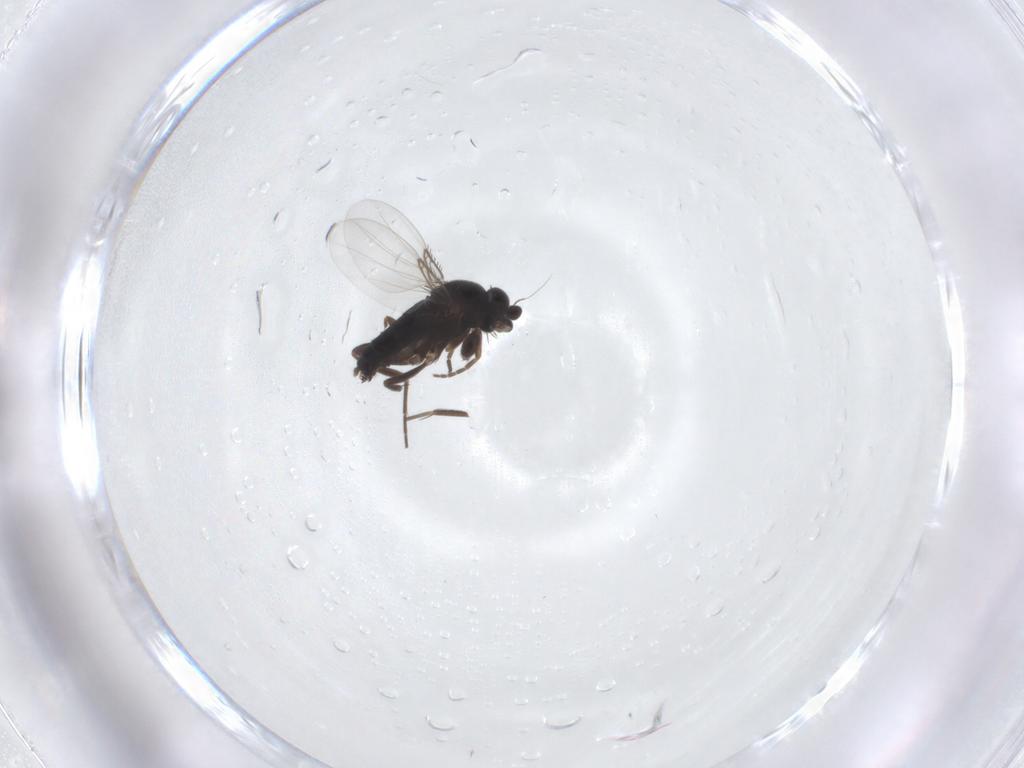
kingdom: Animalia
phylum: Arthropoda
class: Insecta
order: Diptera
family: Phoridae
